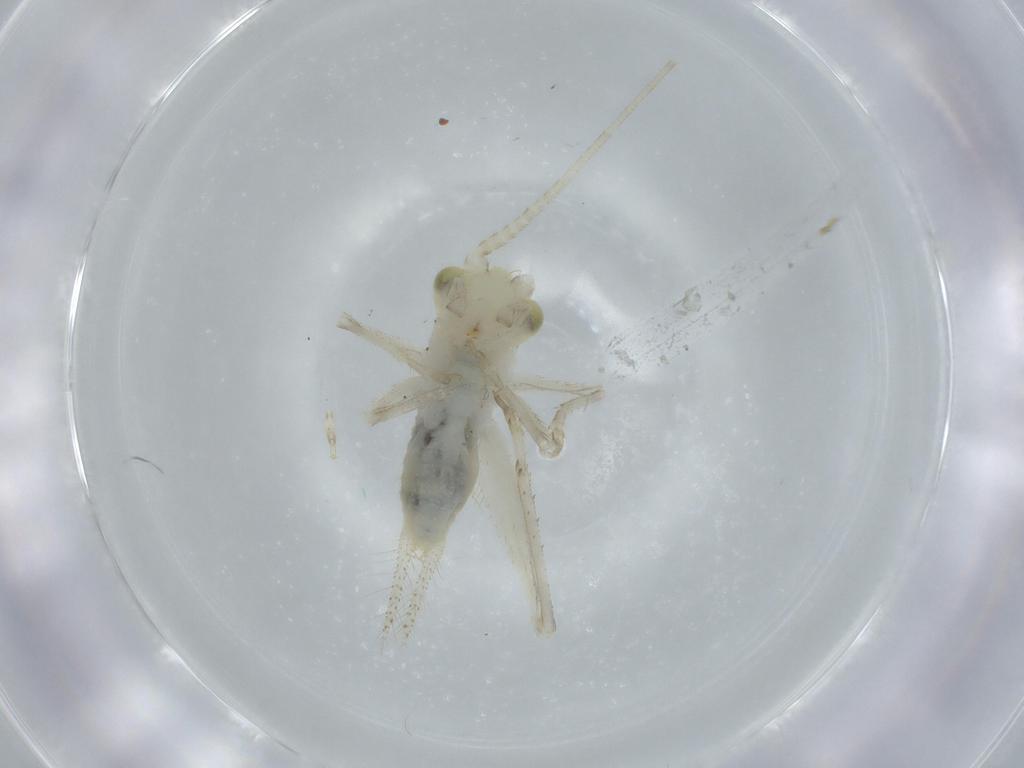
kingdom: Animalia
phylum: Arthropoda
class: Insecta
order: Orthoptera
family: Trigonidiidae
